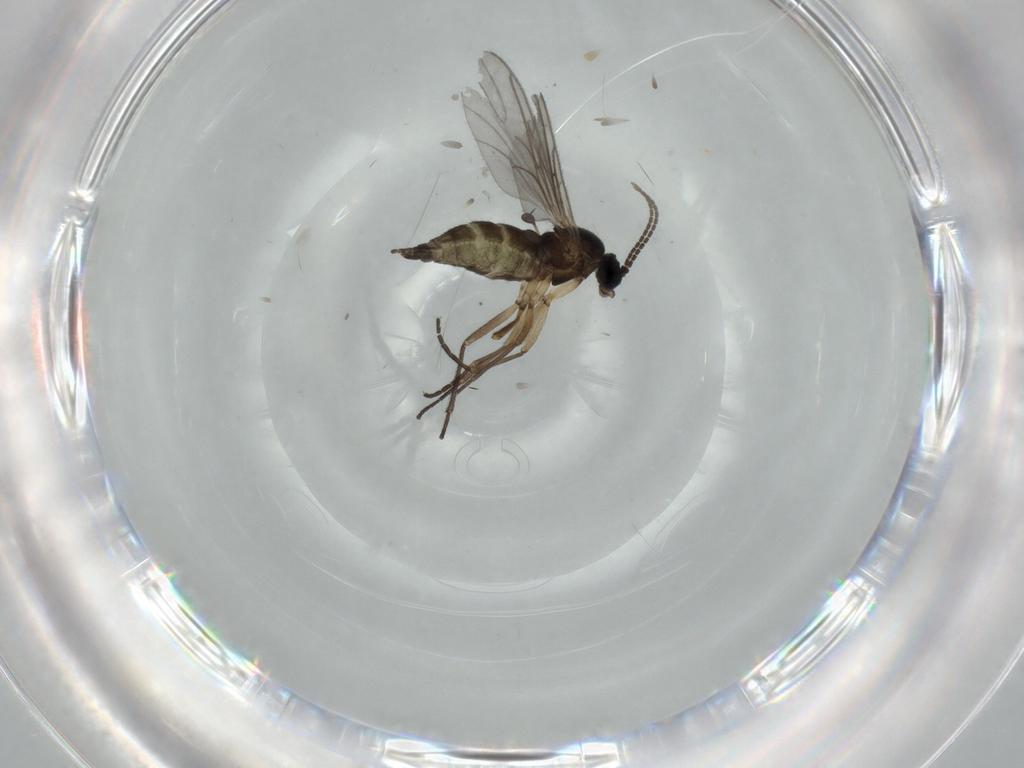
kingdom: Animalia
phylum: Arthropoda
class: Insecta
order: Diptera
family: Sciaridae
